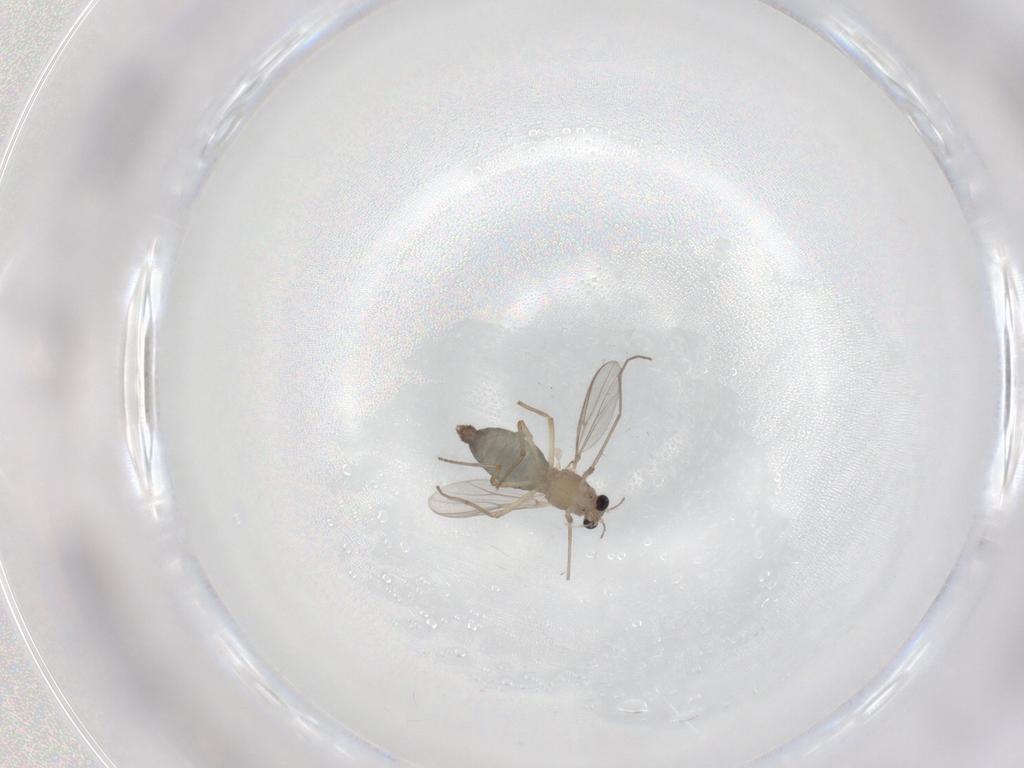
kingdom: Animalia
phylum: Arthropoda
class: Insecta
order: Diptera
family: Chironomidae
